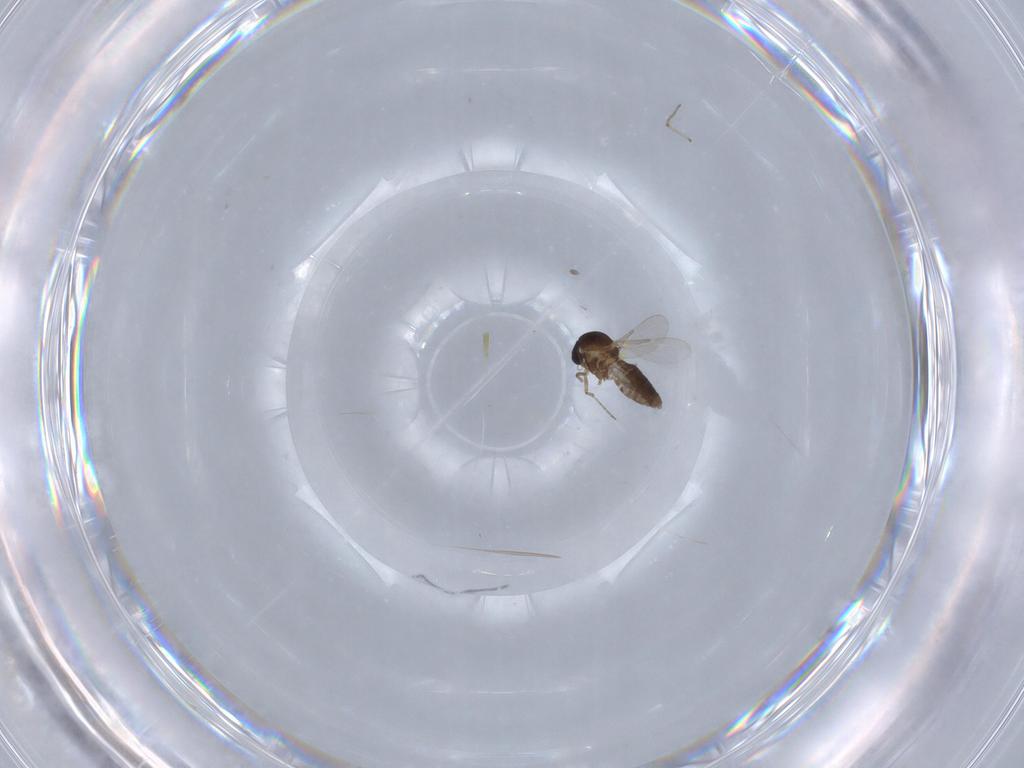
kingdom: Animalia
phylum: Arthropoda
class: Insecta
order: Diptera
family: Ceratopogonidae
